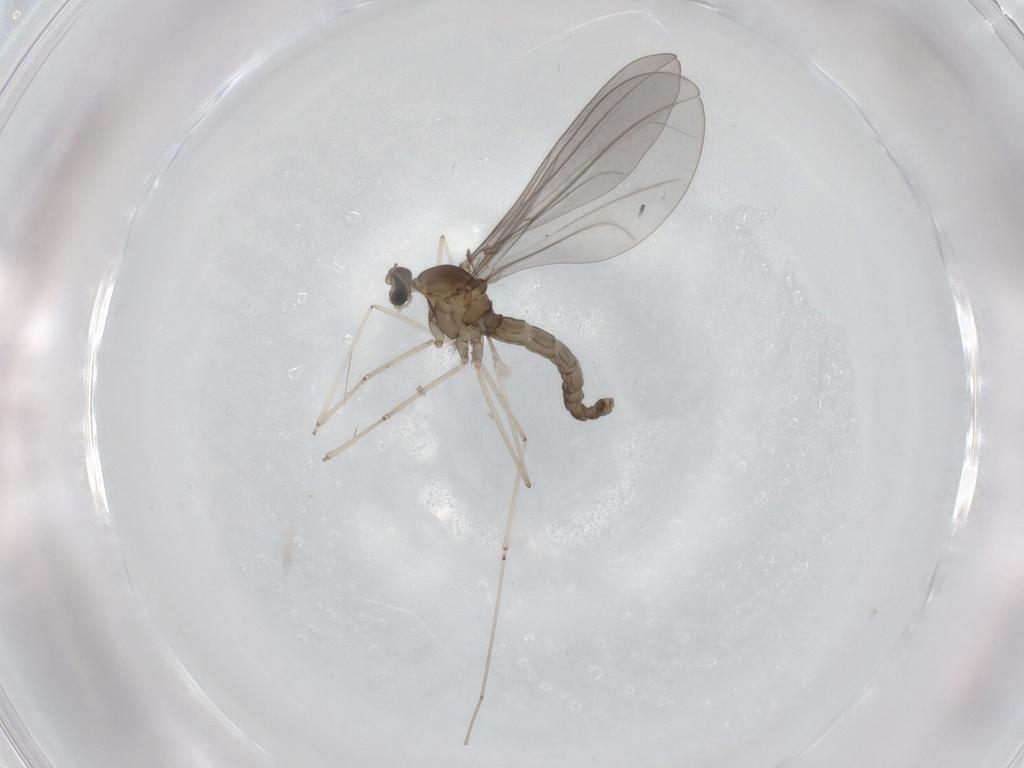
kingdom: Animalia
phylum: Arthropoda
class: Insecta
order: Diptera
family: Cecidomyiidae
